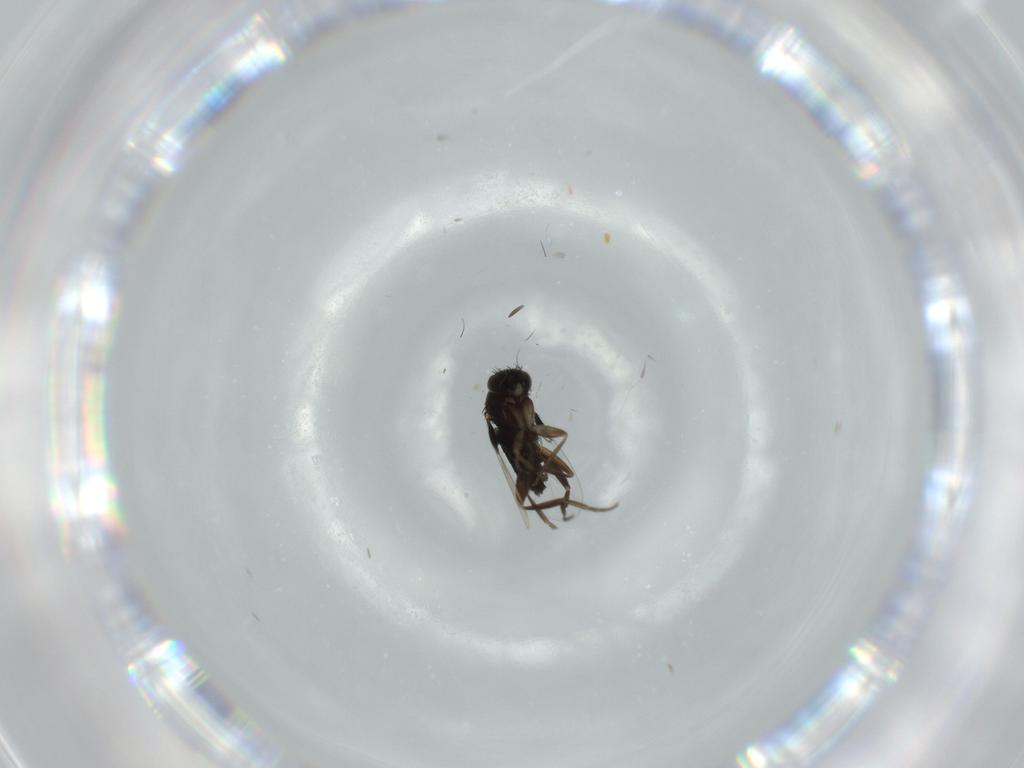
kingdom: Animalia
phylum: Arthropoda
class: Insecta
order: Diptera
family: Phoridae
